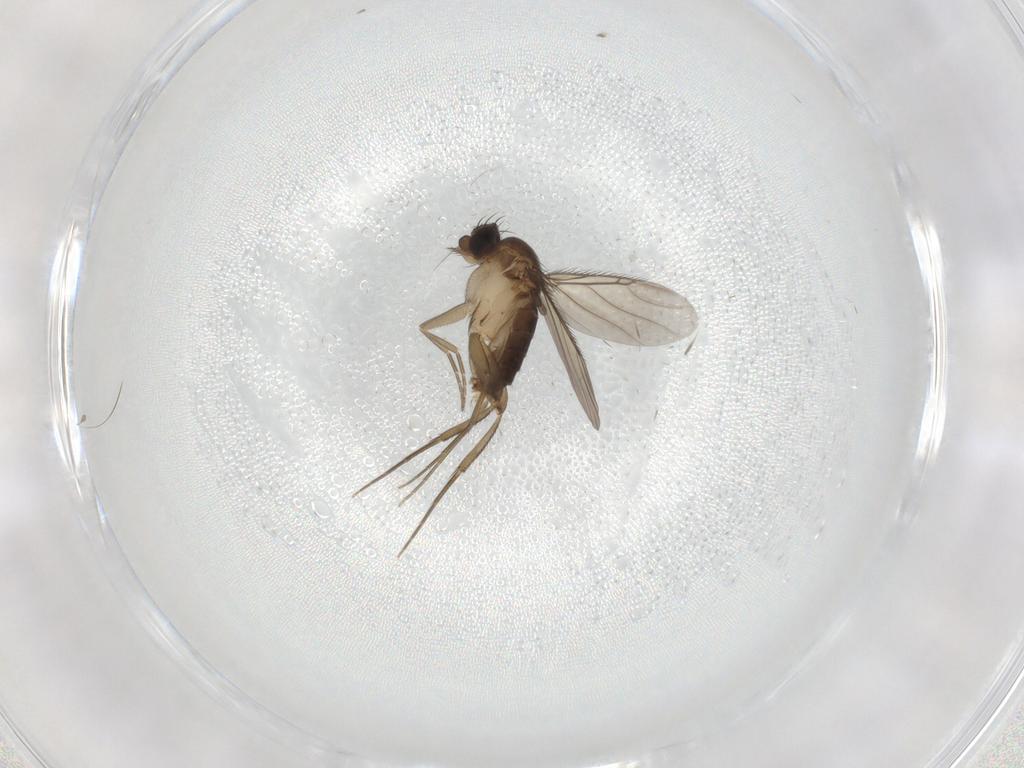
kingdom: Animalia
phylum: Arthropoda
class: Insecta
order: Diptera
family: Phoridae
